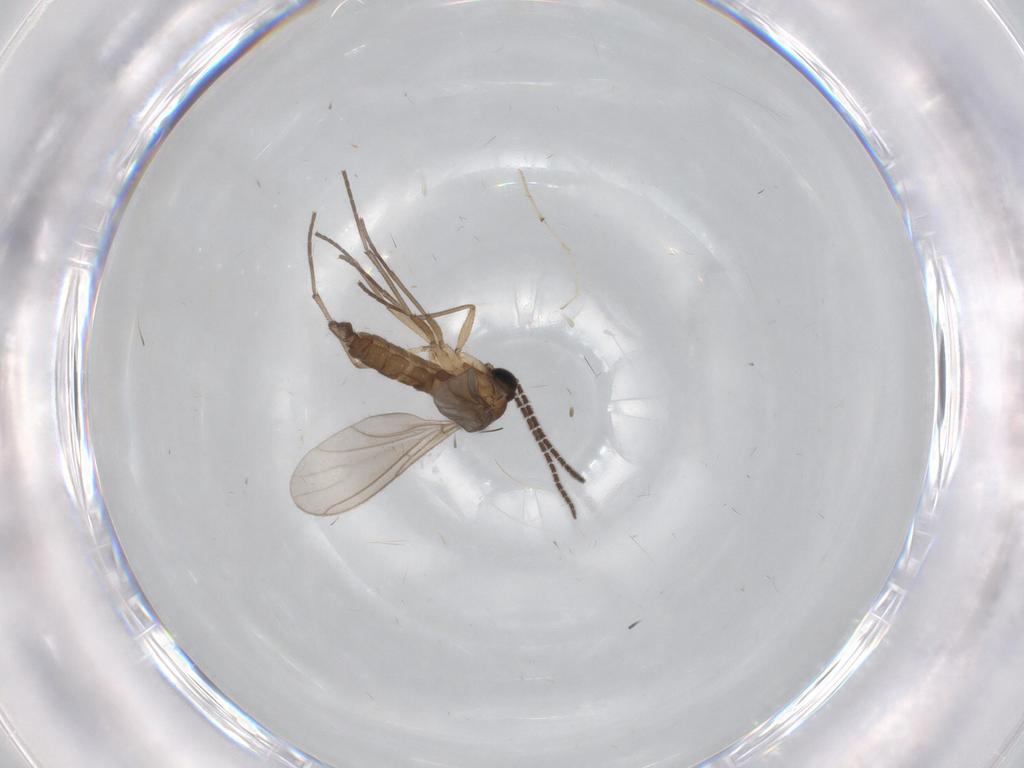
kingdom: Animalia
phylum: Arthropoda
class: Insecta
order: Diptera
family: Sciaridae
